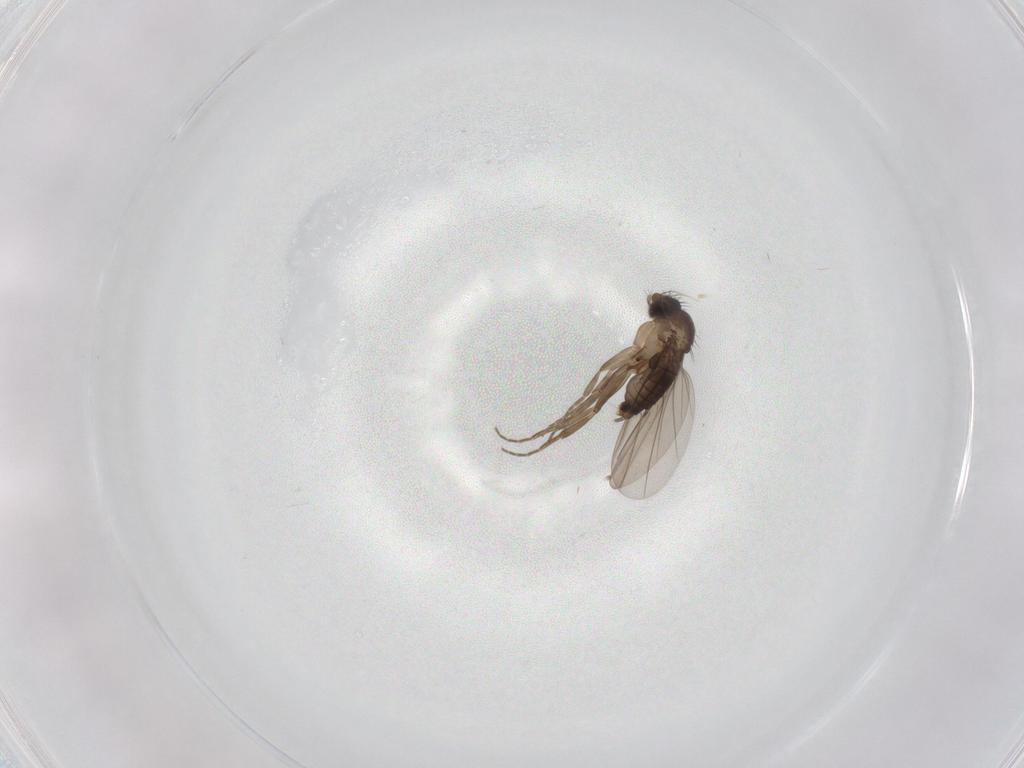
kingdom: Animalia
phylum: Arthropoda
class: Insecta
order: Diptera
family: Phoridae
